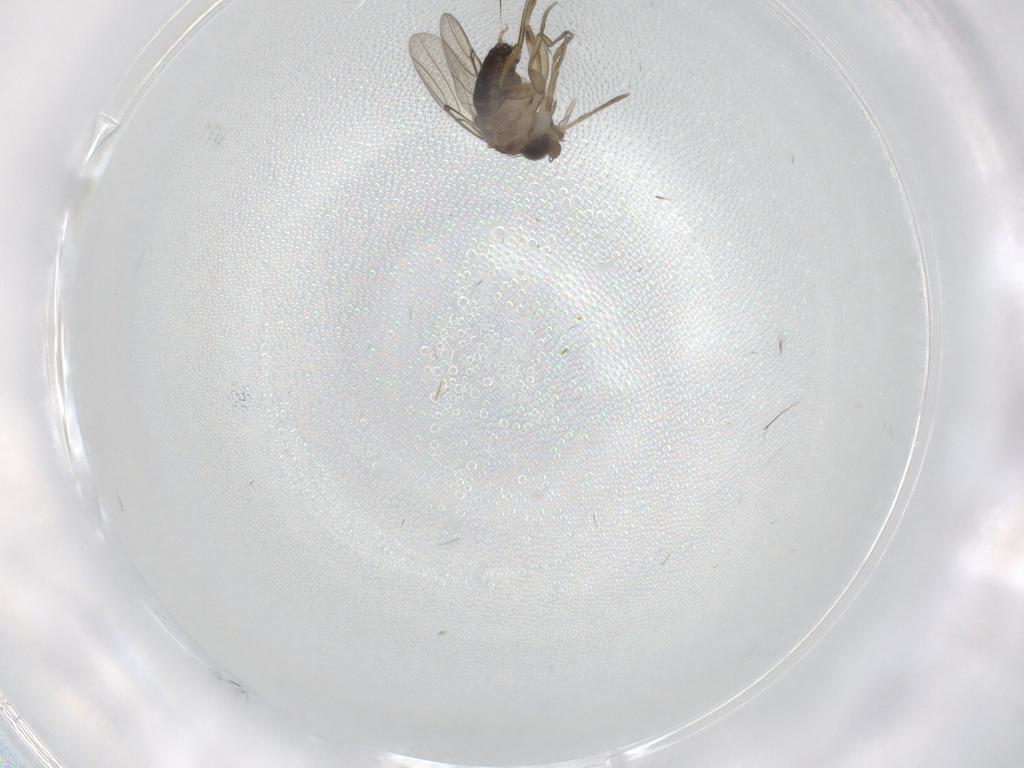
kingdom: Animalia
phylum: Arthropoda
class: Insecta
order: Diptera
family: Phoridae
